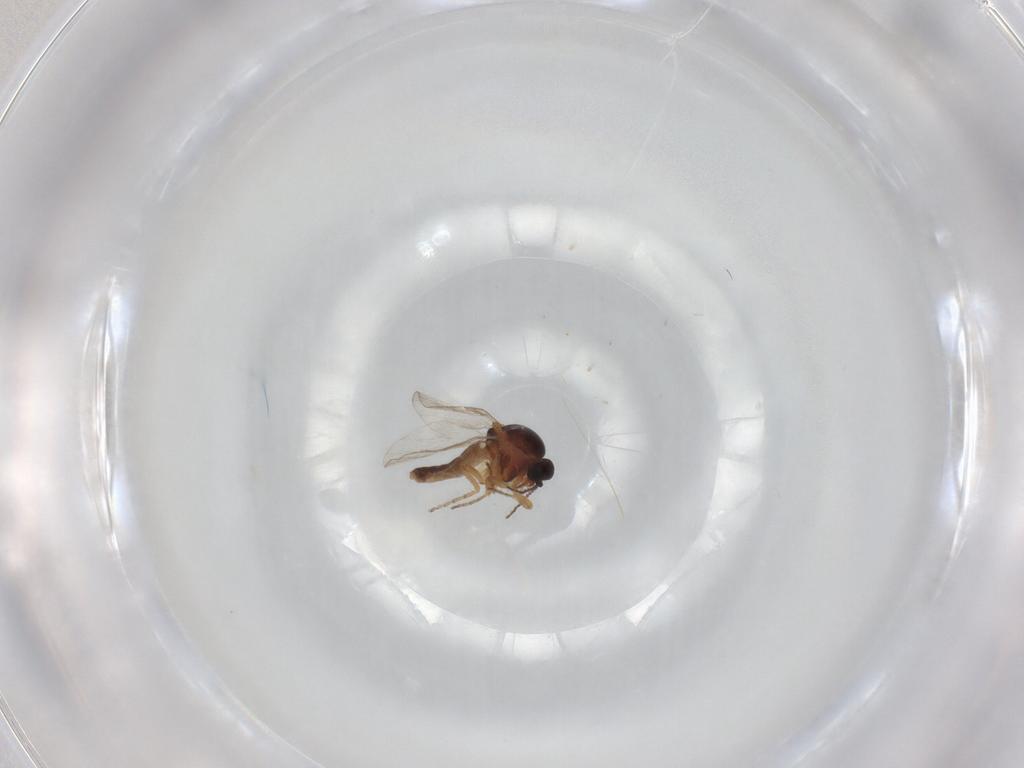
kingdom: Animalia
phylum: Arthropoda
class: Insecta
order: Diptera
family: Ceratopogonidae
